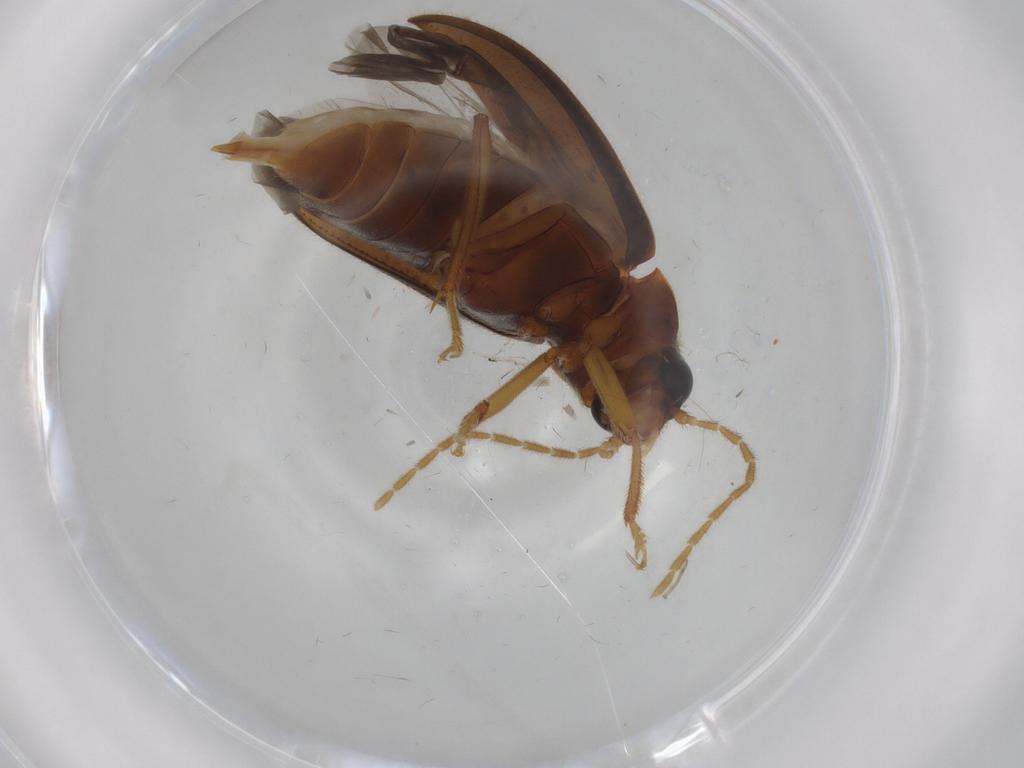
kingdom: Animalia
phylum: Arthropoda
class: Insecta
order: Coleoptera
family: Ptilodactylidae
